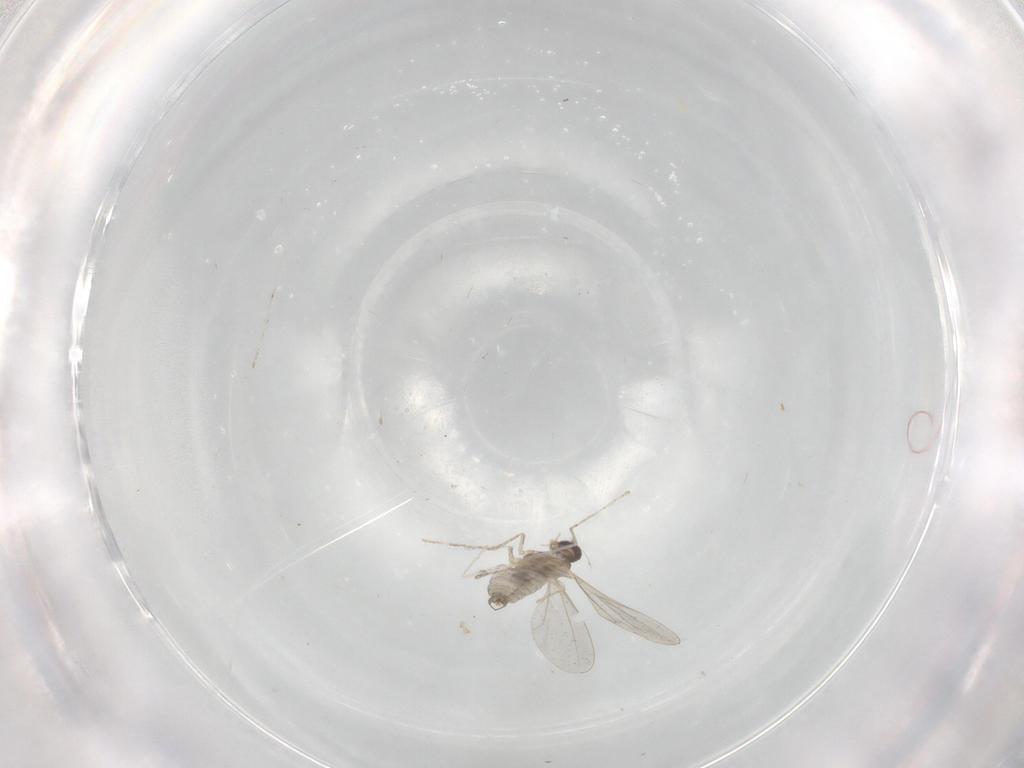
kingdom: Animalia
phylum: Arthropoda
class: Insecta
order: Diptera
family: Cecidomyiidae
